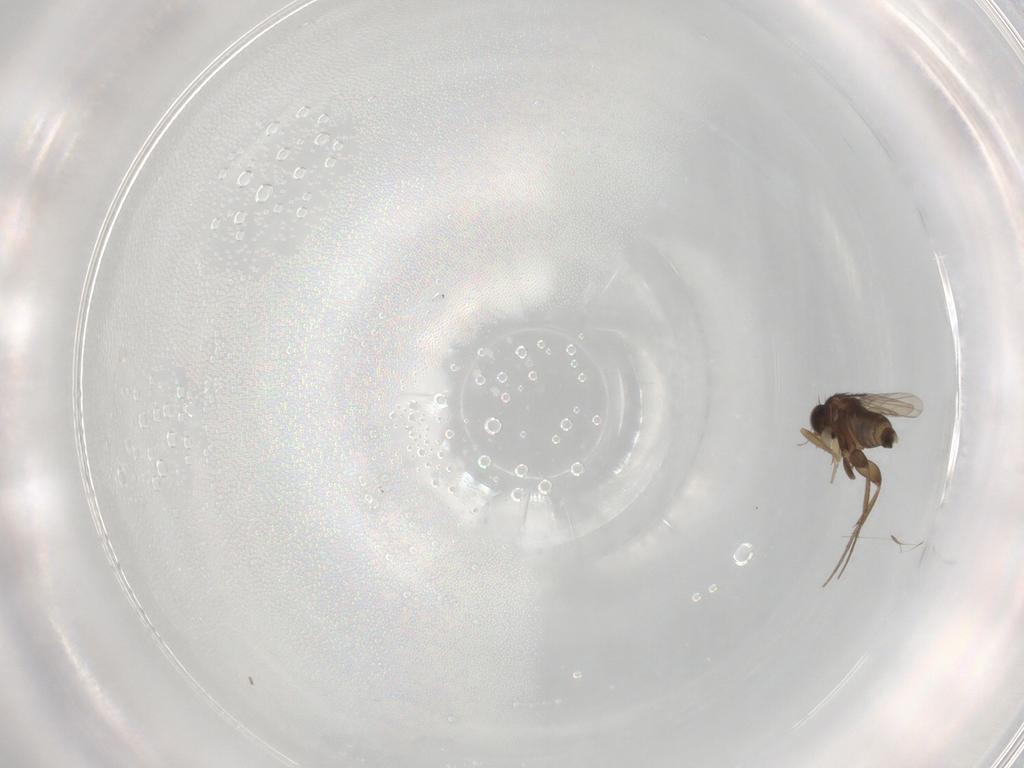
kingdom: Animalia
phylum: Arthropoda
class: Insecta
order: Diptera
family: Phoridae
